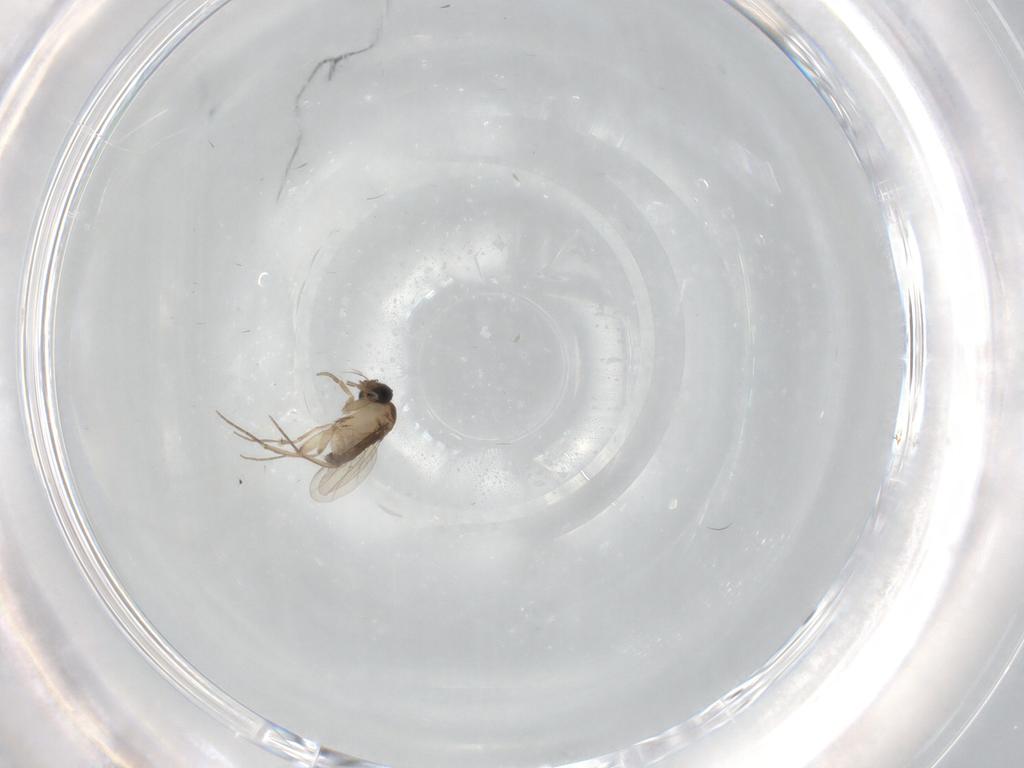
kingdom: Animalia
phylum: Arthropoda
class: Insecta
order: Diptera
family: Phoridae
